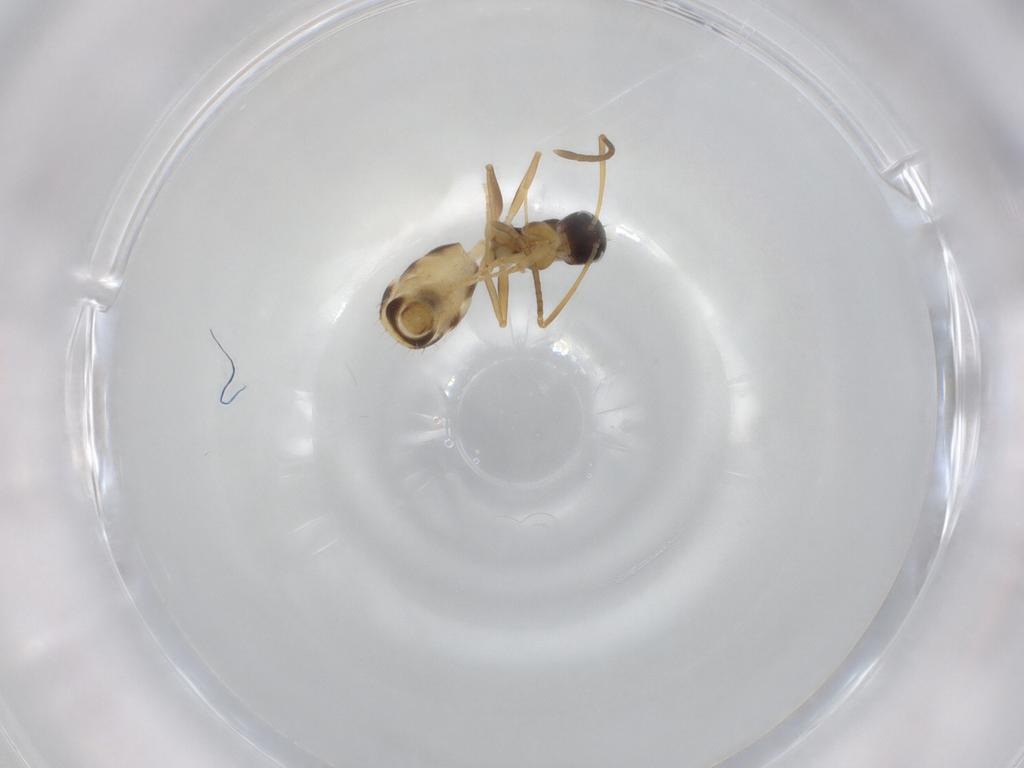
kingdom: Animalia
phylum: Arthropoda
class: Insecta
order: Hymenoptera
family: Formicidae
